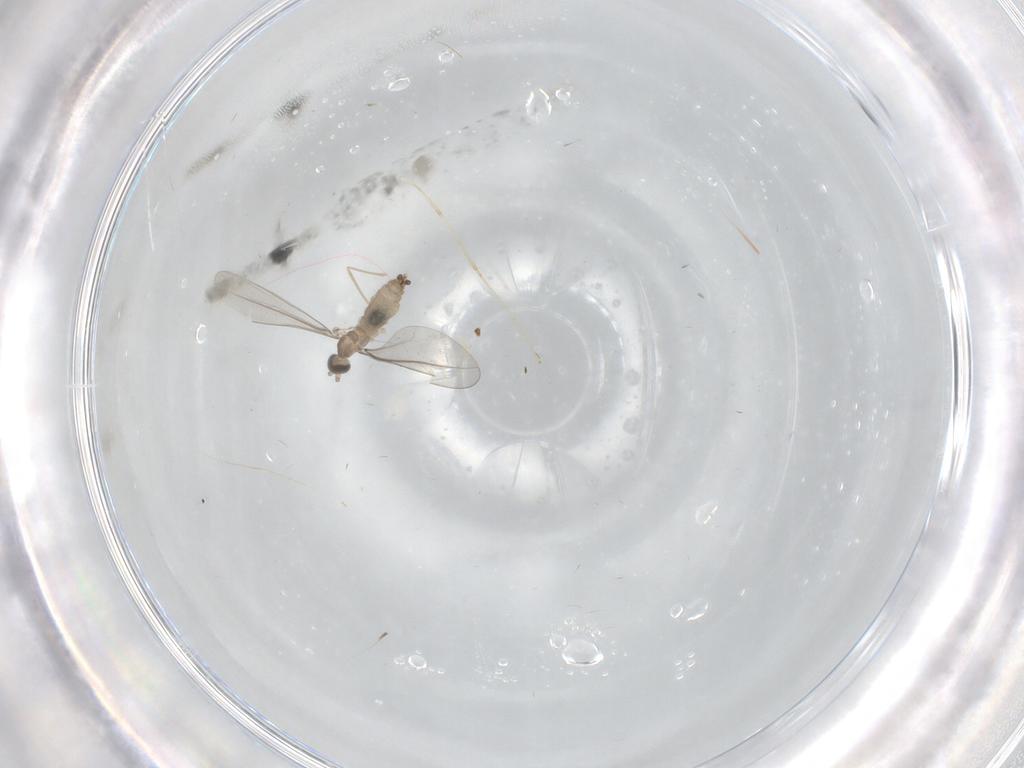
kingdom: Animalia
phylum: Arthropoda
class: Insecta
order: Diptera
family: Cecidomyiidae
